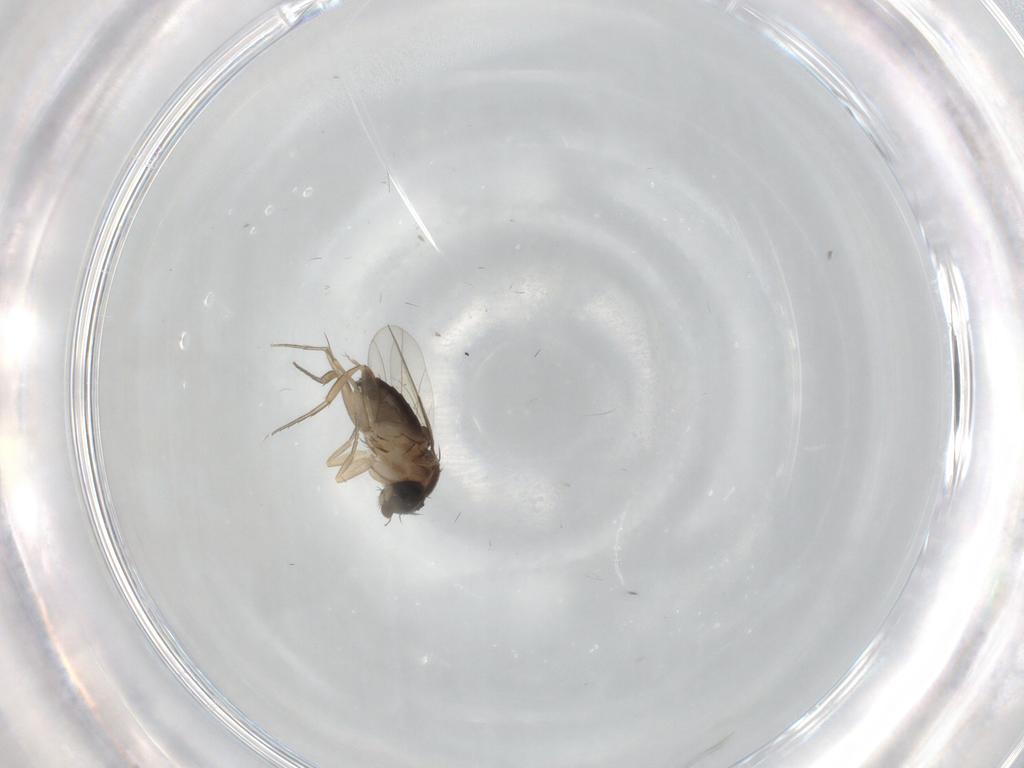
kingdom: Animalia
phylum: Arthropoda
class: Insecta
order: Diptera
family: Phoridae
